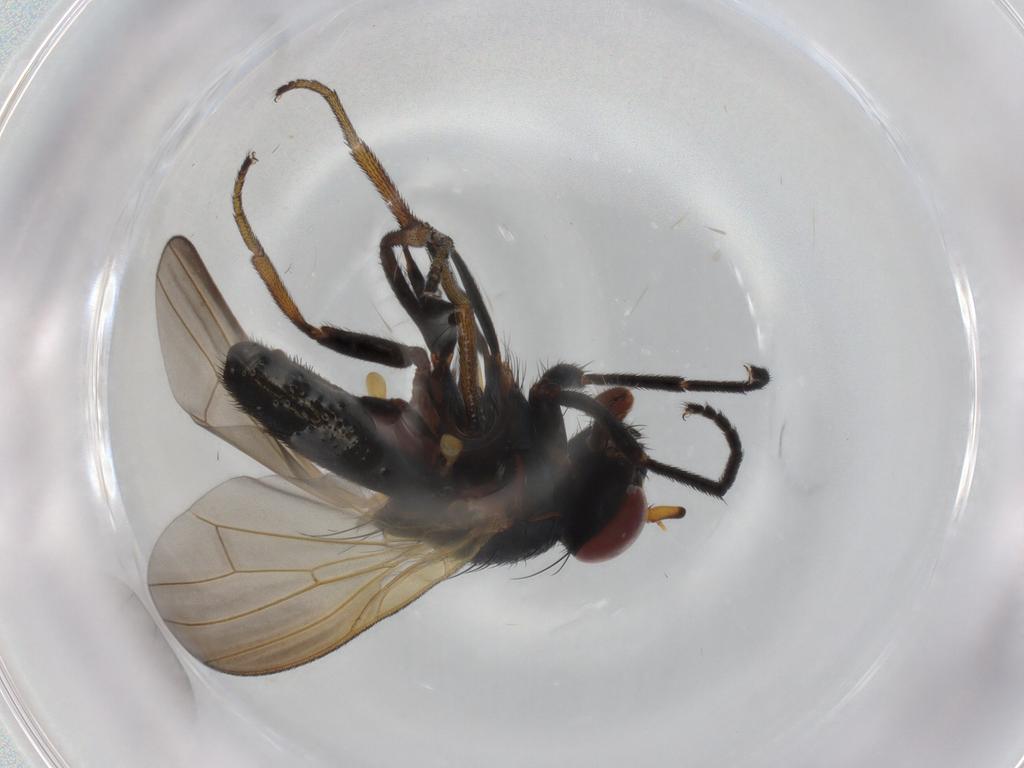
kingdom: Animalia
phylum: Arthropoda
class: Insecta
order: Diptera
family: Lauxaniidae
